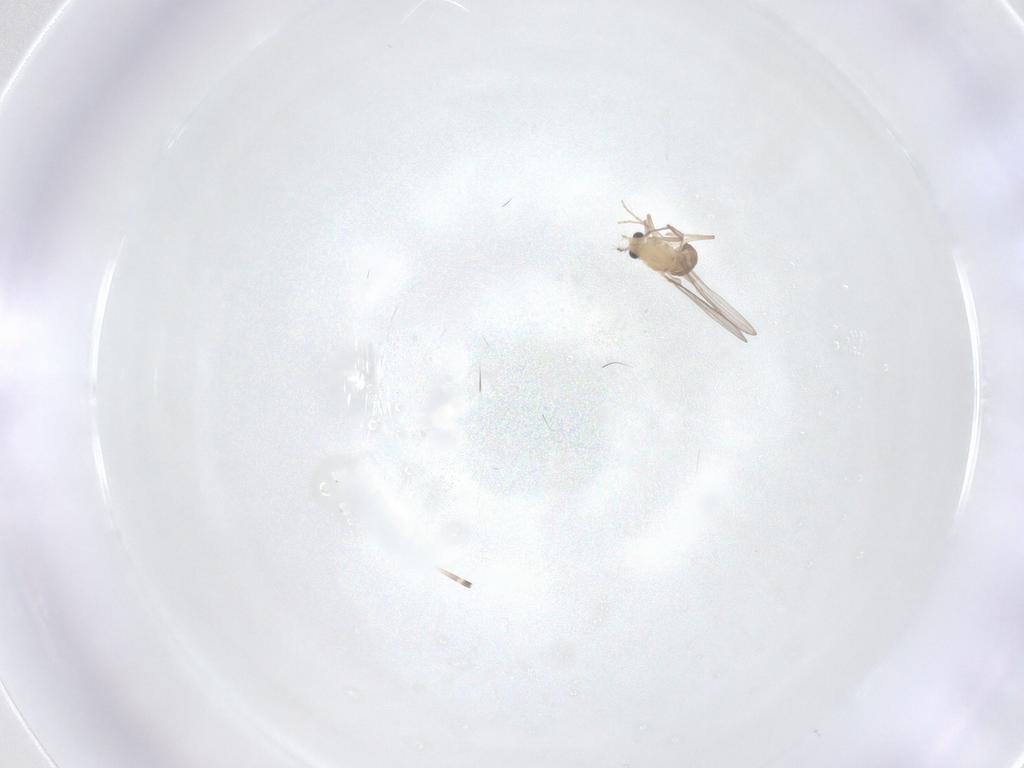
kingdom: Animalia
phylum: Arthropoda
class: Insecta
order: Diptera
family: Chironomidae
